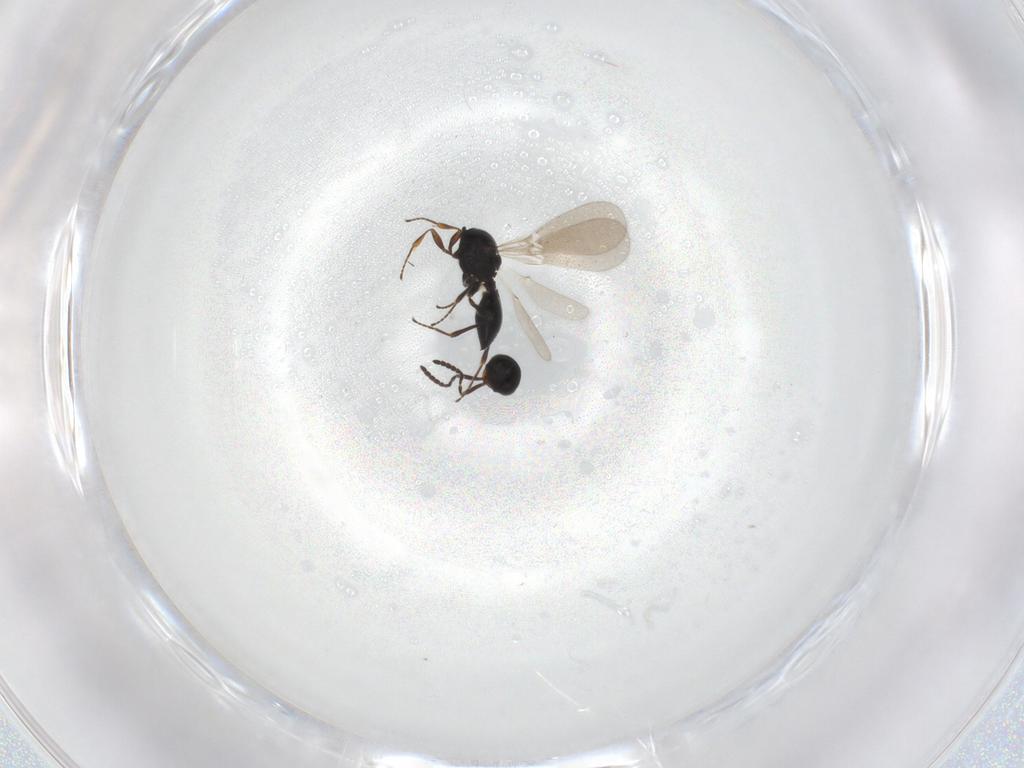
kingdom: Animalia
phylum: Arthropoda
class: Insecta
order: Hymenoptera
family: Platygastridae
